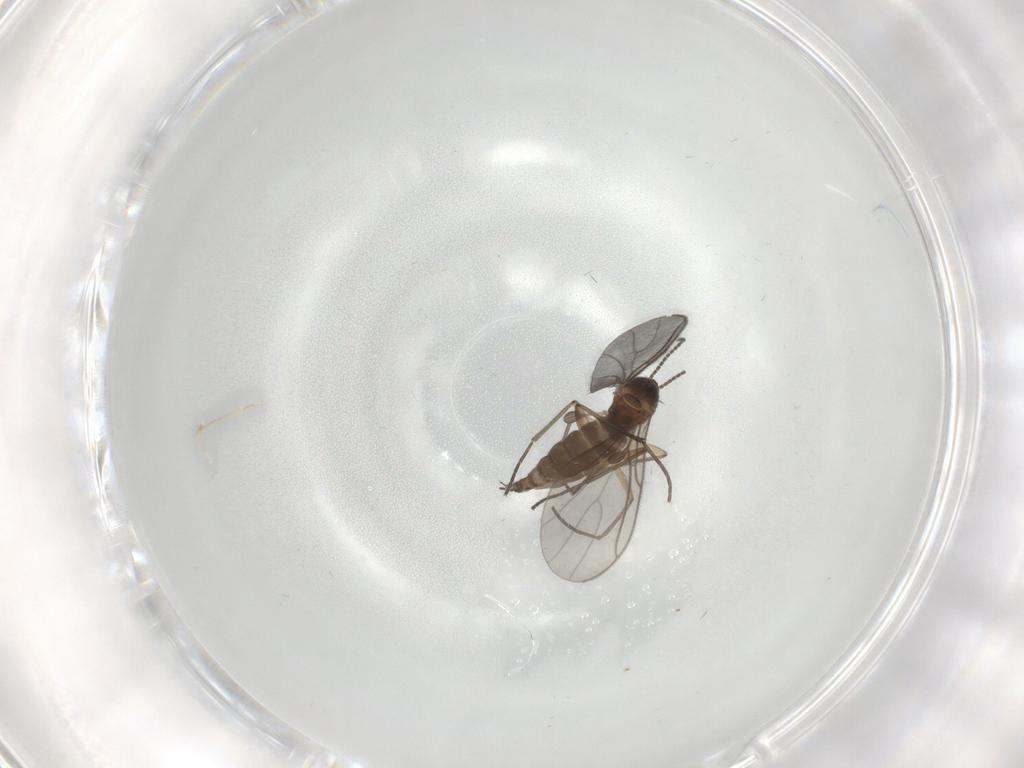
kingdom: Animalia
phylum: Arthropoda
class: Insecta
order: Diptera
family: Sciaridae
